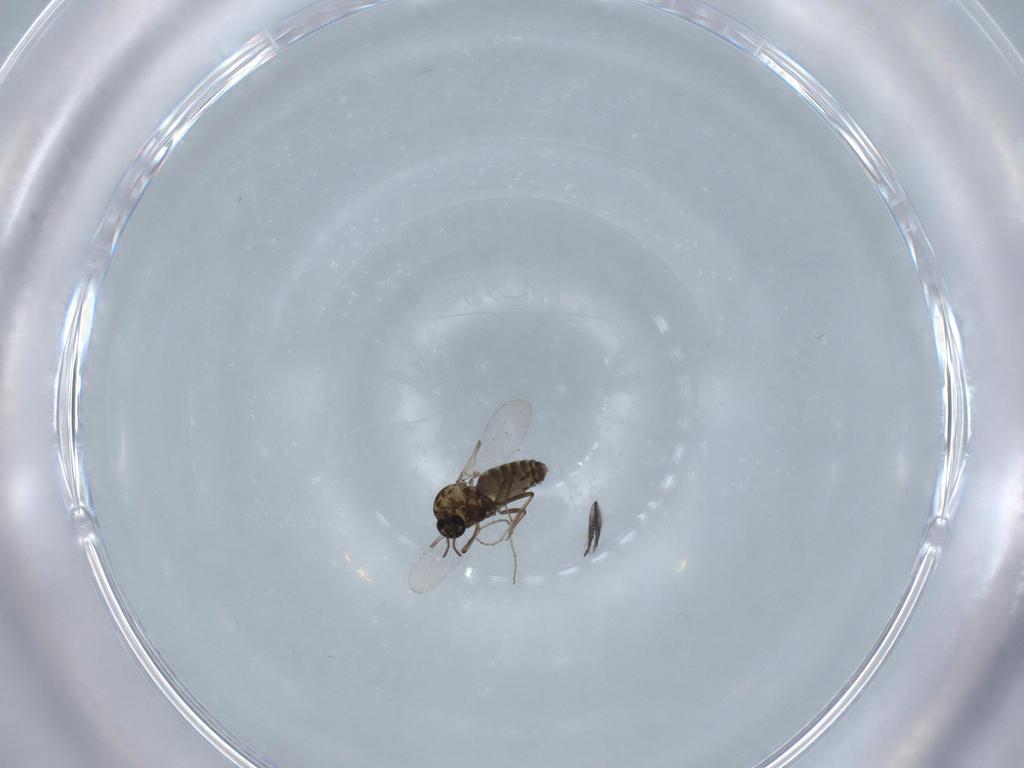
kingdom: Animalia
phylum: Arthropoda
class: Insecta
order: Diptera
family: Ceratopogonidae
